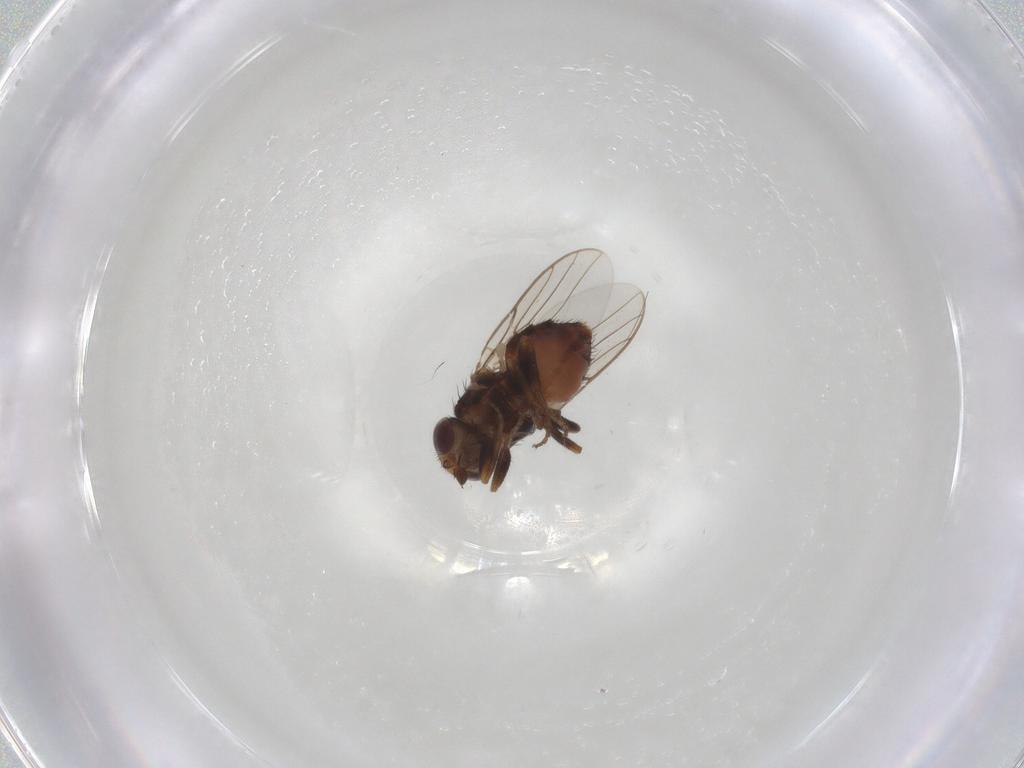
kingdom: Animalia
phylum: Arthropoda
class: Insecta
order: Diptera
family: Chloropidae
